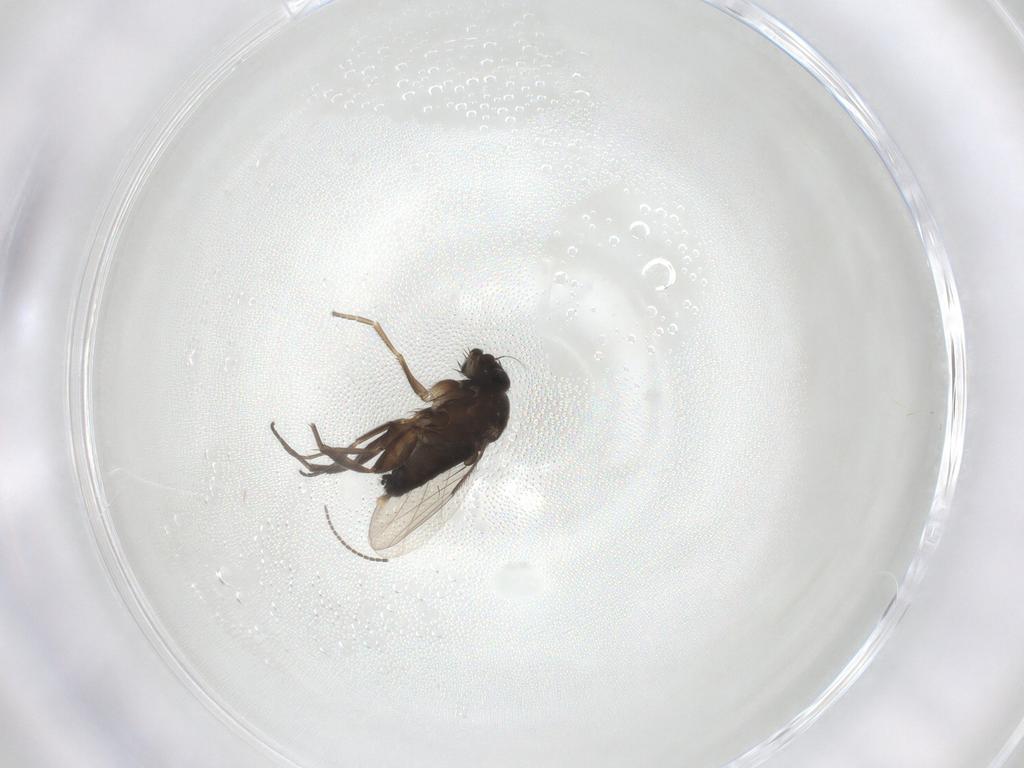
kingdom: Animalia
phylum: Arthropoda
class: Insecta
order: Diptera
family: Phoridae
